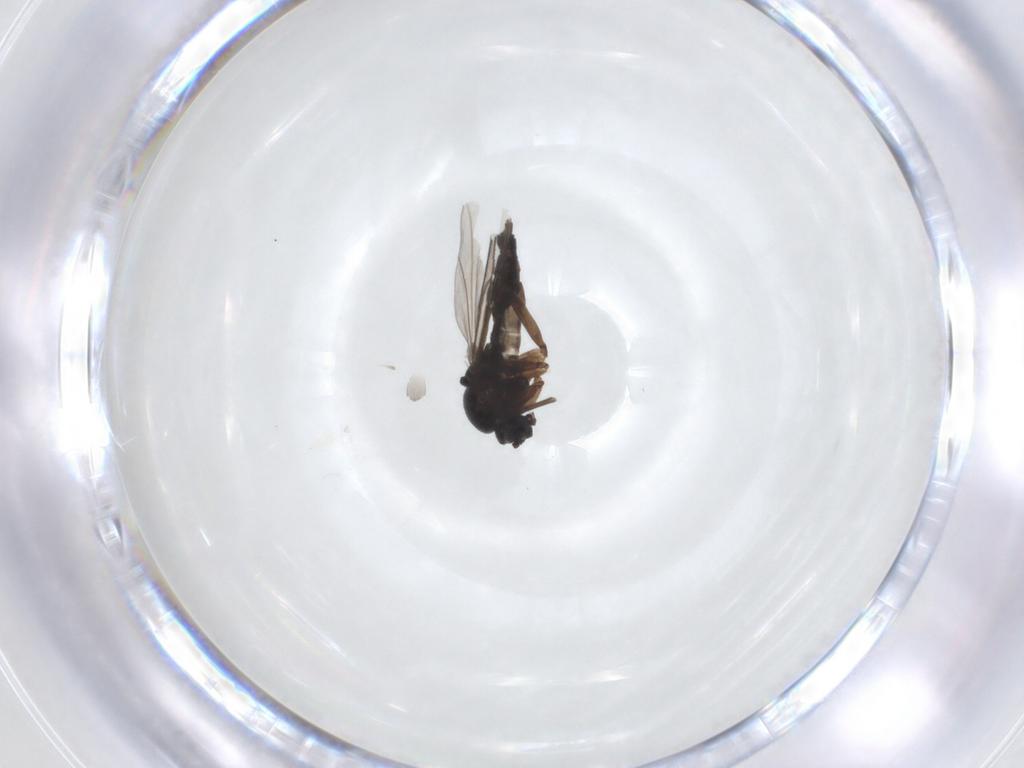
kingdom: Animalia
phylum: Arthropoda
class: Insecta
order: Diptera
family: Sciaridae
